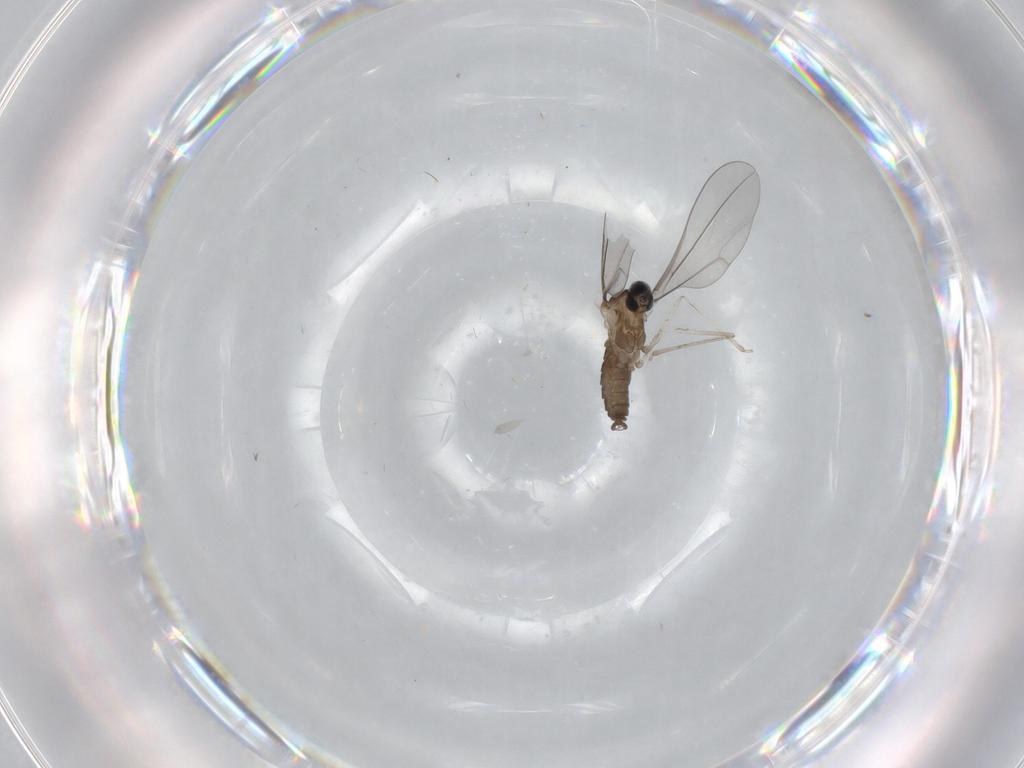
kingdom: Animalia
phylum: Arthropoda
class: Insecta
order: Diptera
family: Cecidomyiidae
